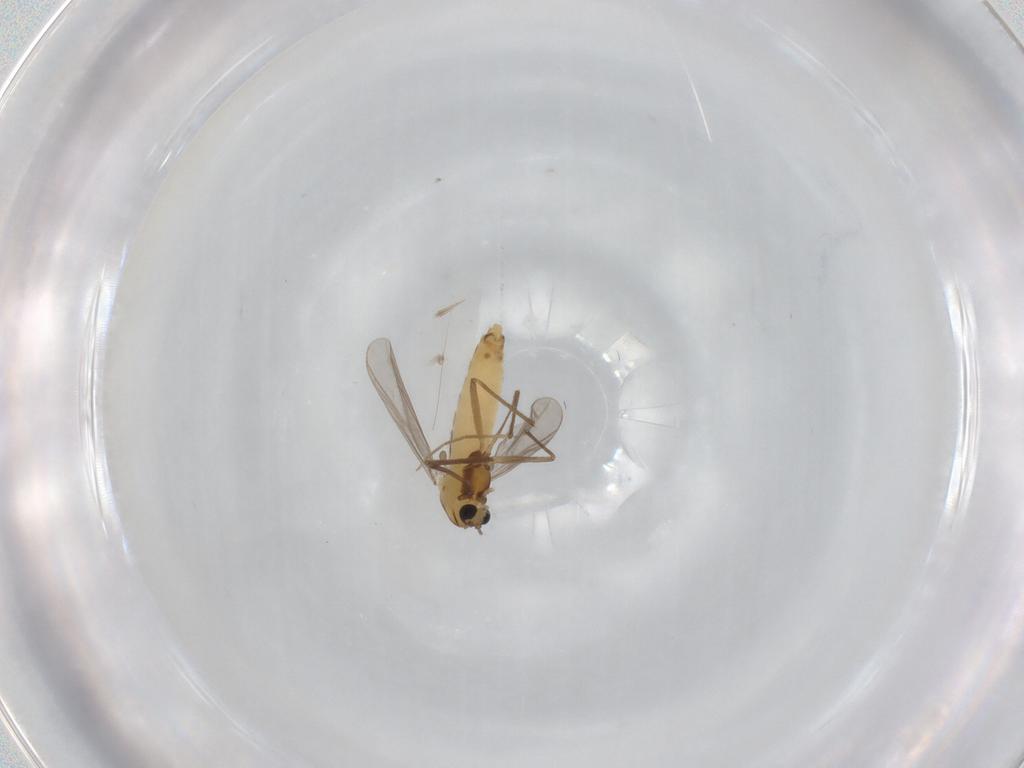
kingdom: Animalia
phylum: Arthropoda
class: Insecta
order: Diptera
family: Chironomidae
